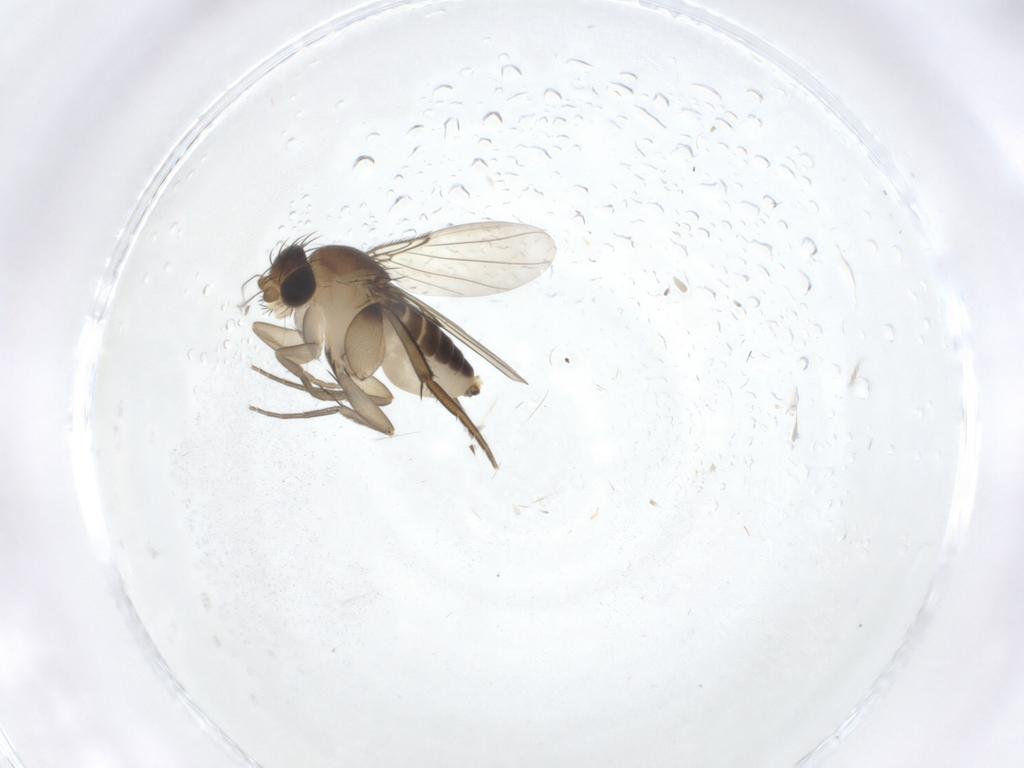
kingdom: Animalia
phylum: Arthropoda
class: Insecta
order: Diptera
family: Phoridae
